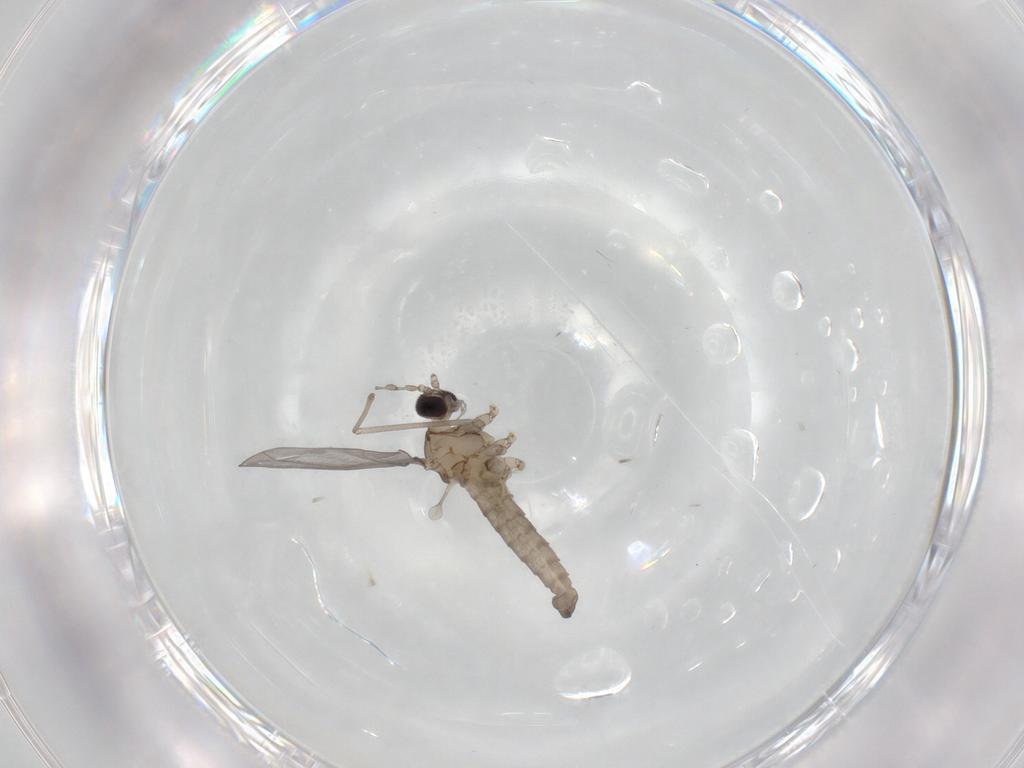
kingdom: Animalia
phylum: Arthropoda
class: Insecta
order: Diptera
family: Cecidomyiidae
